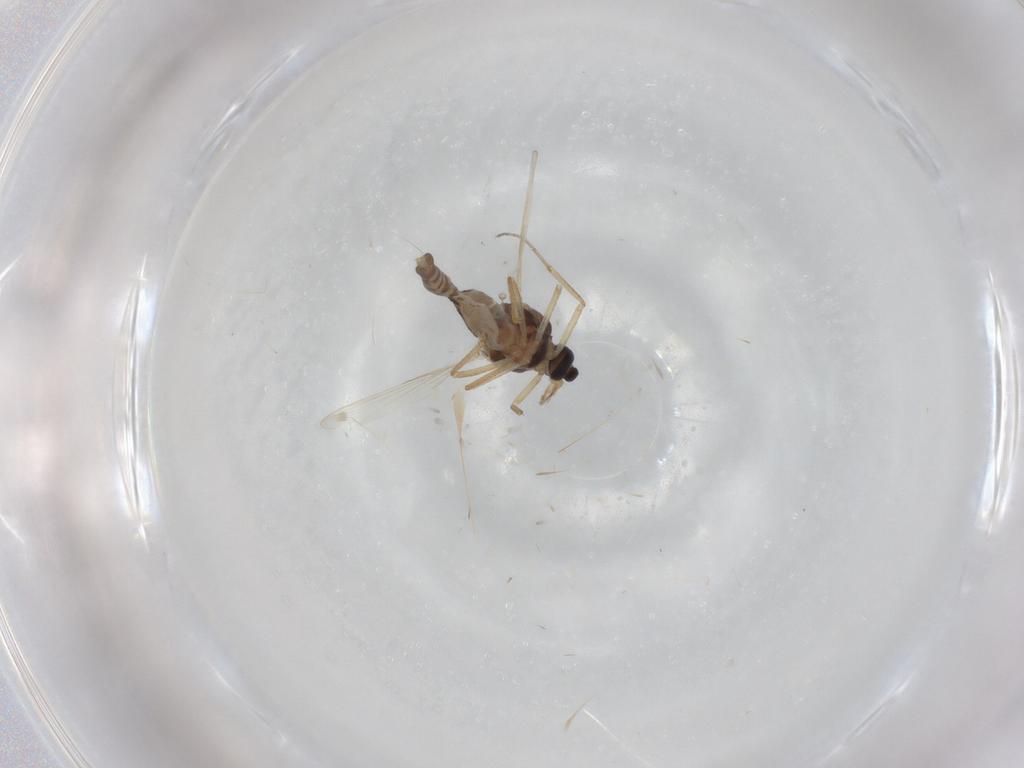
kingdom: Animalia
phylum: Arthropoda
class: Insecta
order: Diptera
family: Ceratopogonidae
